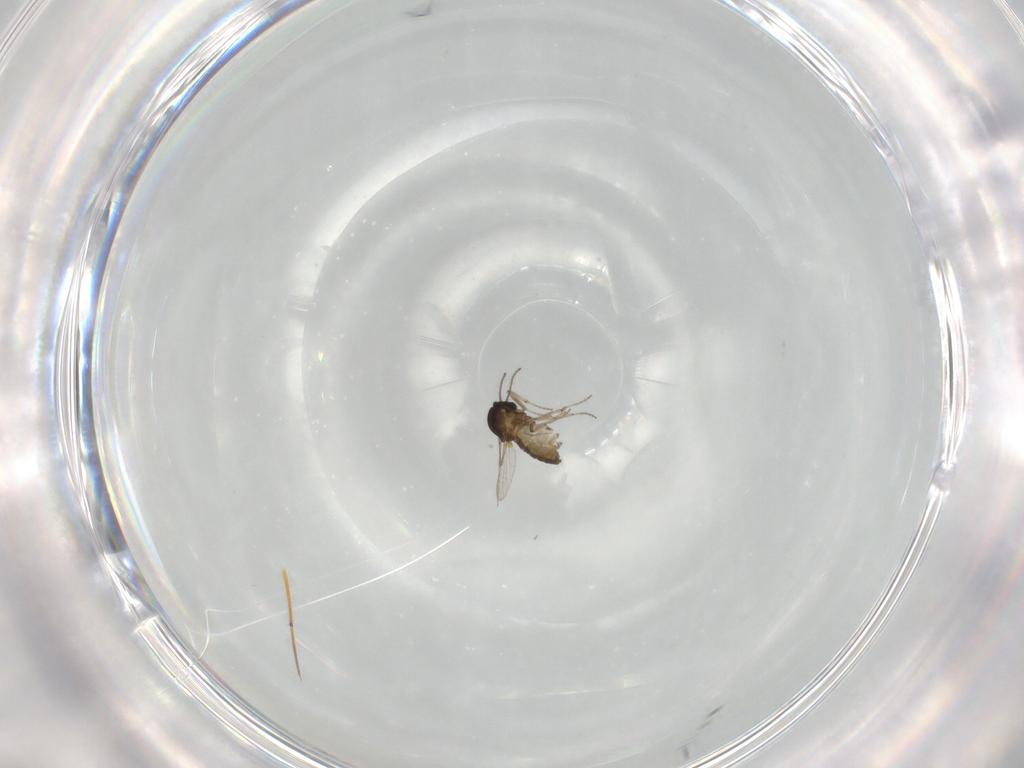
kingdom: Animalia
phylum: Arthropoda
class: Insecta
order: Diptera
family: Ceratopogonidae
